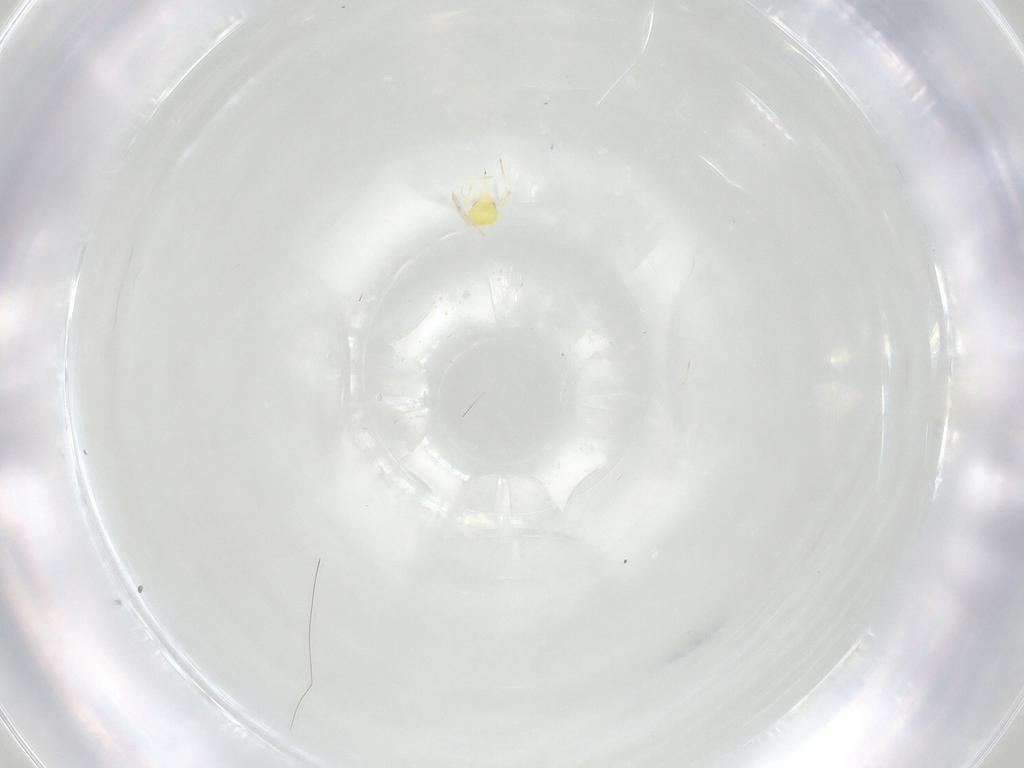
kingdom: Animalia
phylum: Arthropoda
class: Insecta
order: Hemiptera
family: Aleyrodidae
